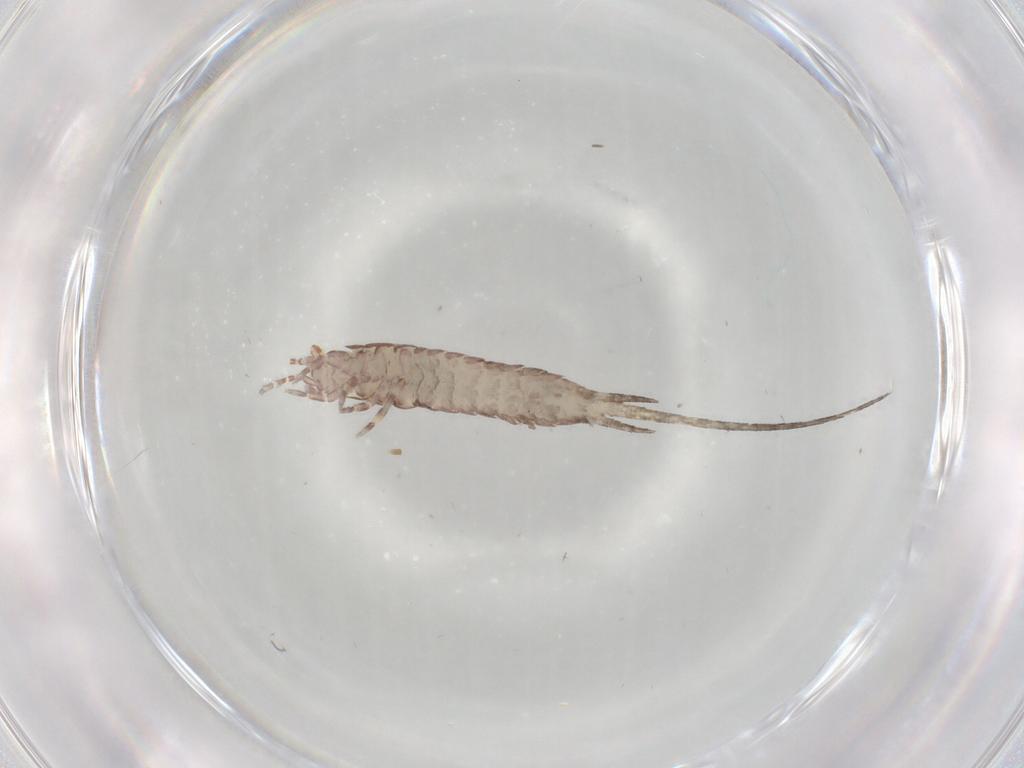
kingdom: Animalia
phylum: Arthropoda
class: Insecta
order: Archaeognatha
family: Machilidae
